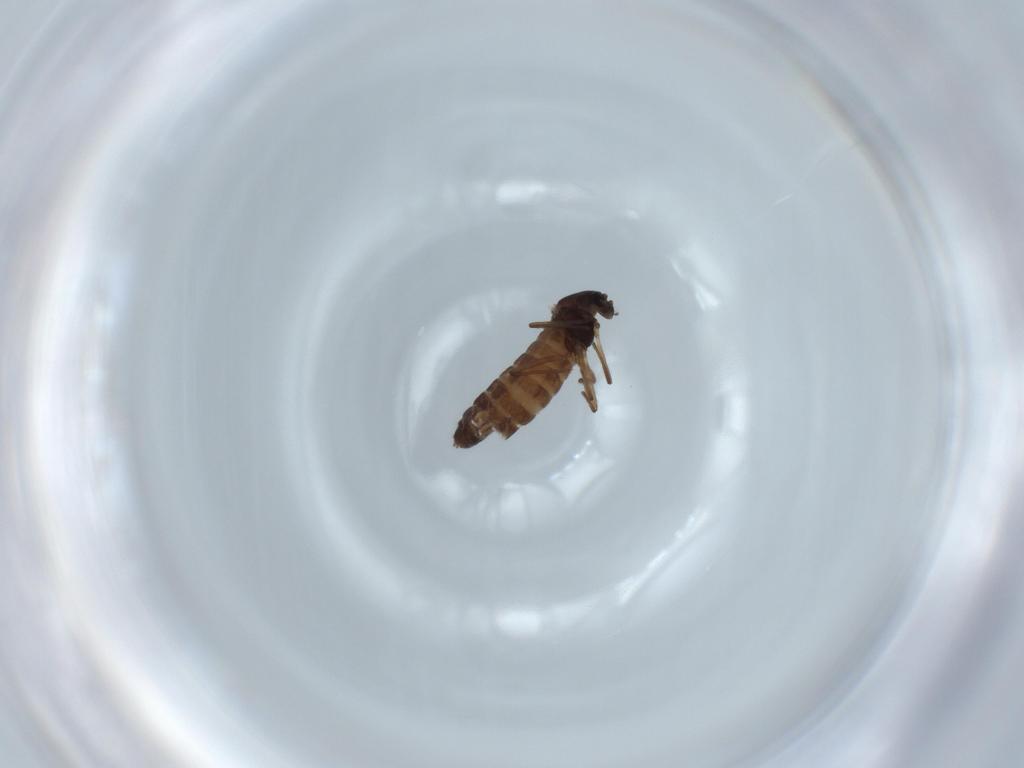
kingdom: Animalia
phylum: Arthropoda
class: Insecta
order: Diptera
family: Chironomidae
